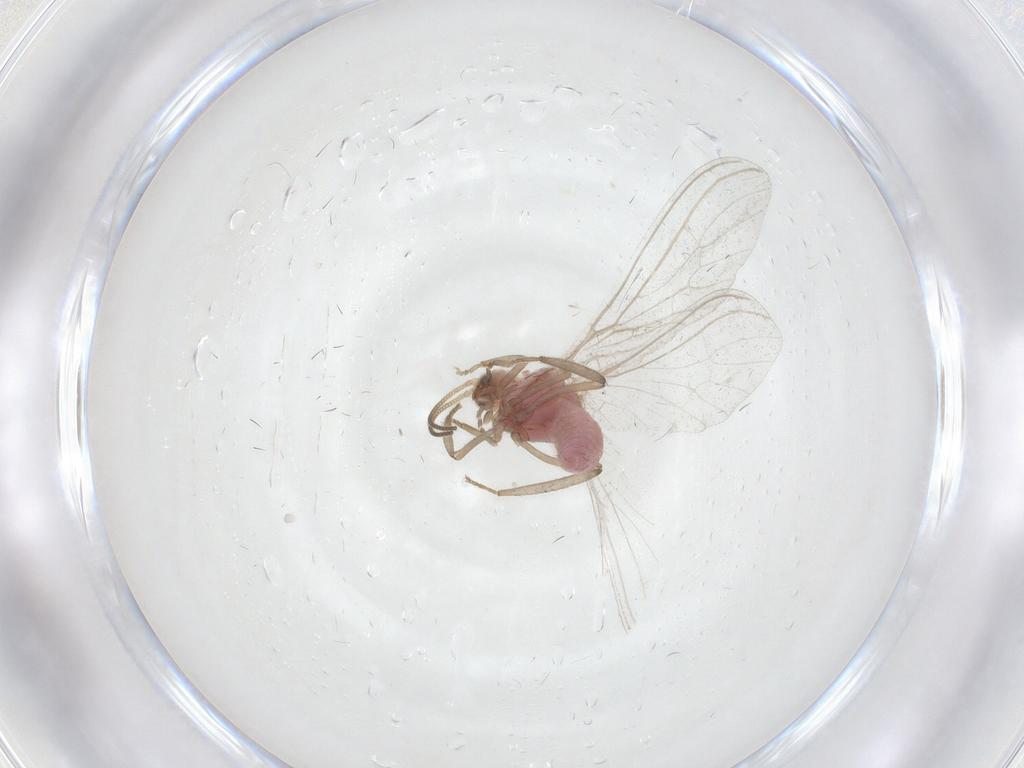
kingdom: Animalia
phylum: Arthropoda
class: Insecta
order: Neuroptera
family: Coniopterygidae
